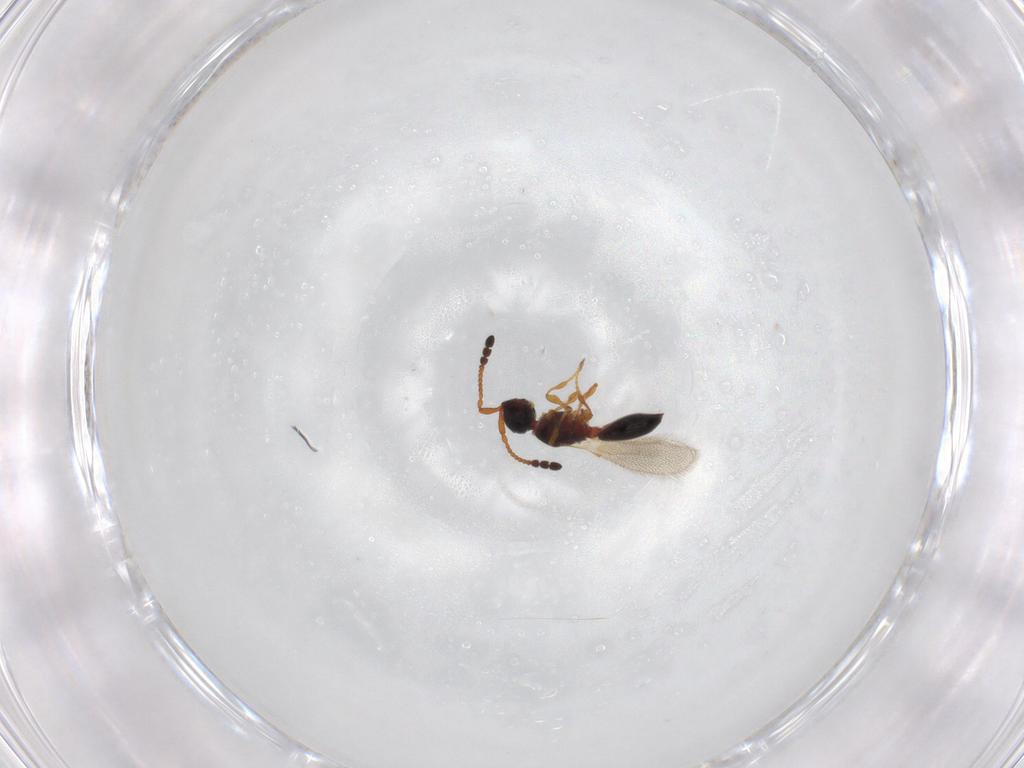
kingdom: Animalia
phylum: Arthropoda
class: Insecta
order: Hymenoptera
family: Diapriidae
